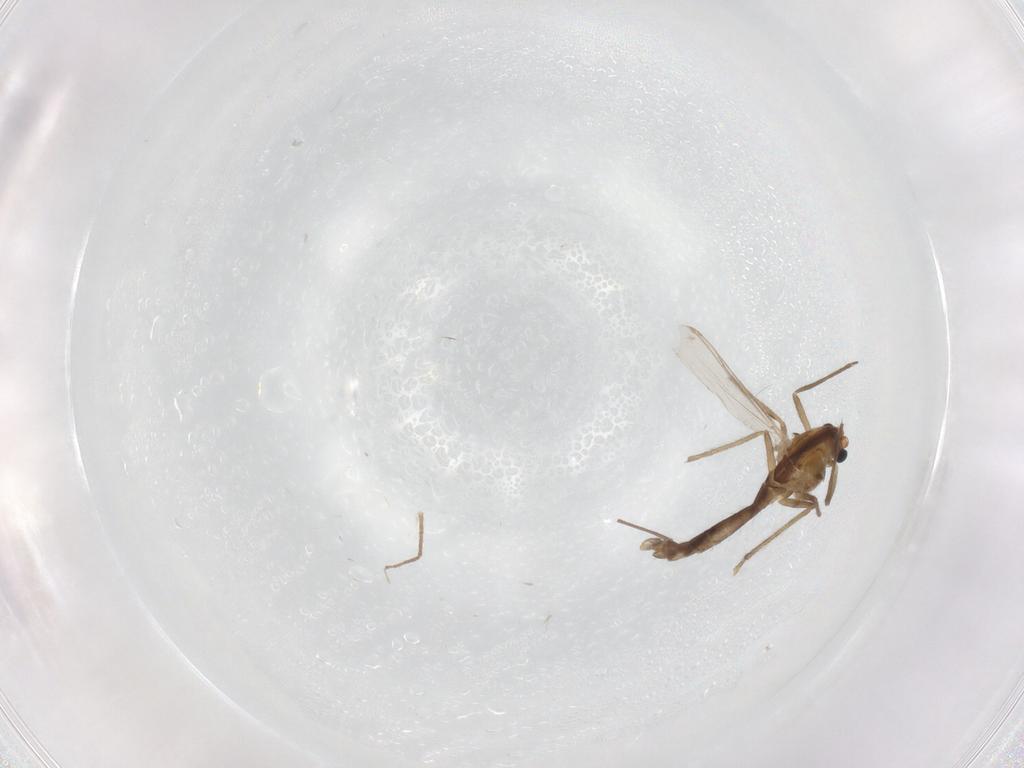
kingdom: Animalia
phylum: Arthropoda
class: Insecta
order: Diptera
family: Chironomidae
